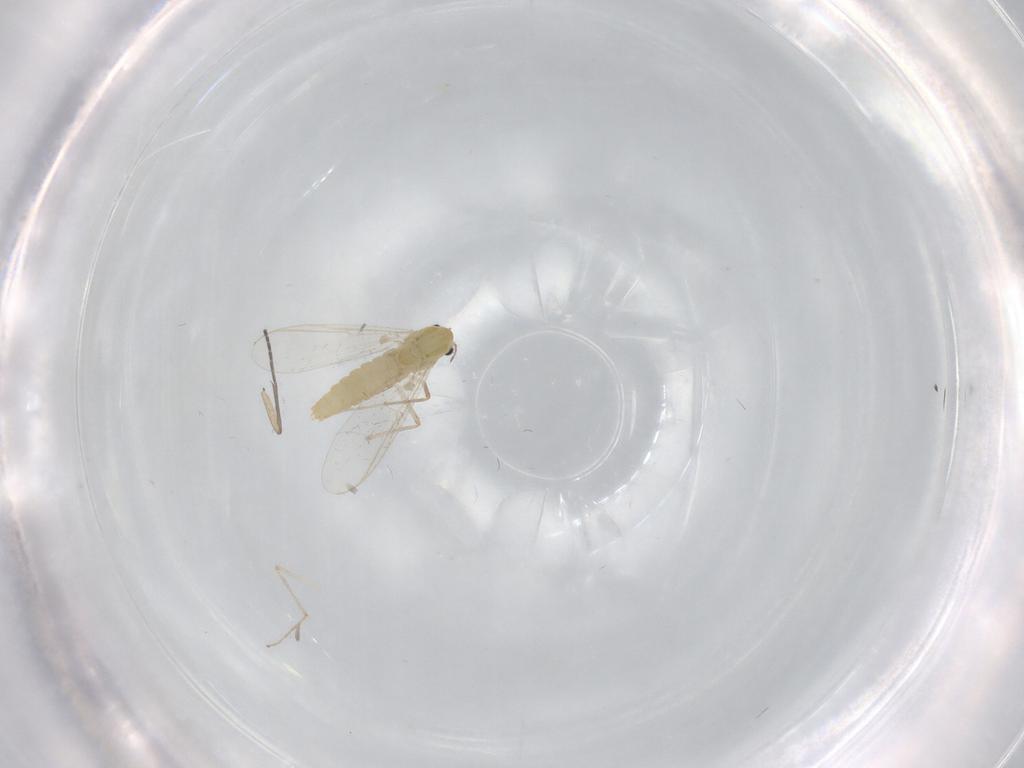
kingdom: Animalia
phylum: Arthropoda
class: Insecta
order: Diptera
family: Chironomidae
